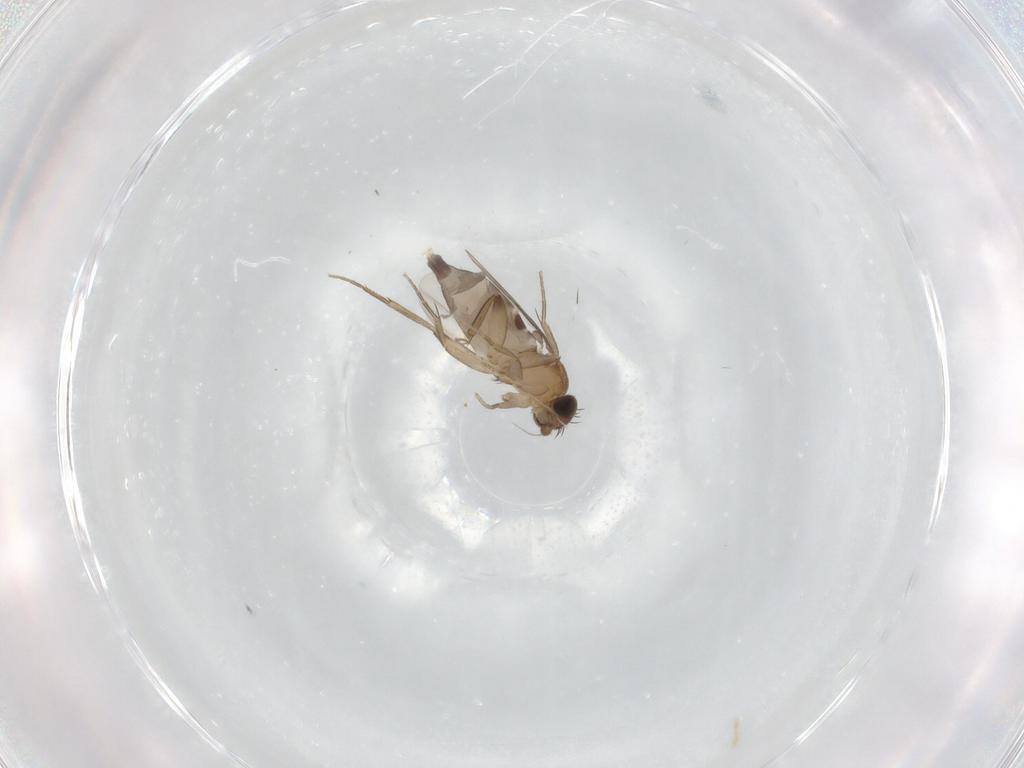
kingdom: Animalia
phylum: Arthropoda
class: Insecta
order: Diptera
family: Phoridae
